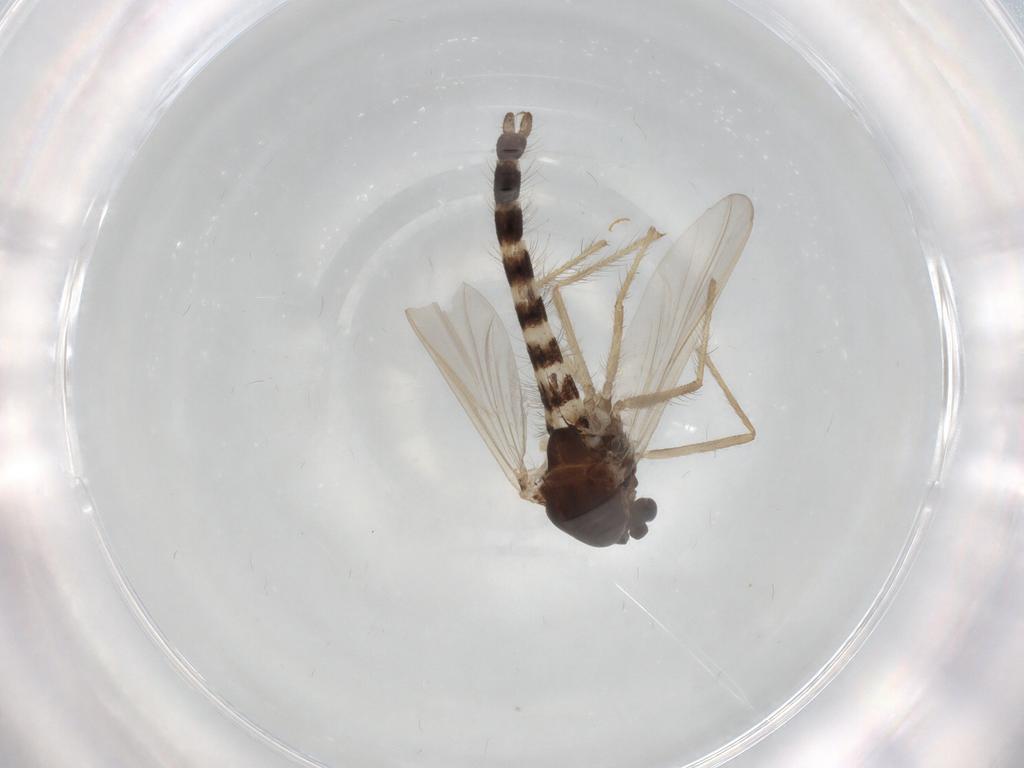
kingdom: Animalia
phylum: Arthropoda
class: Insecta
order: Diptera
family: Chironomidae
